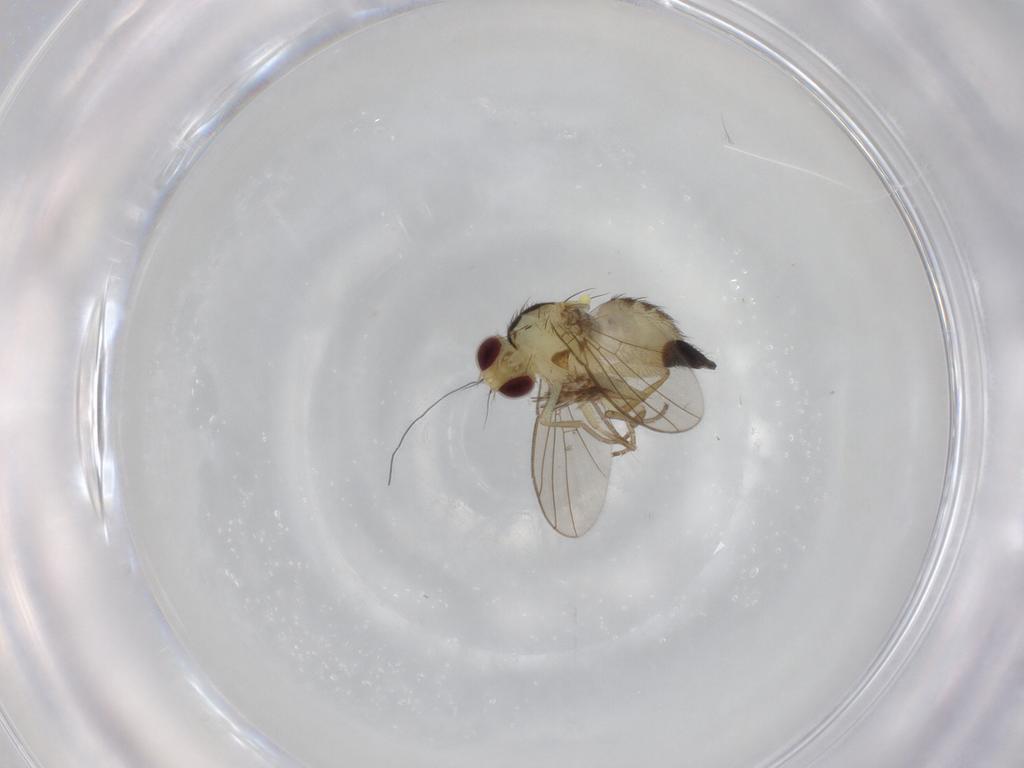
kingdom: Animalia
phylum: Arthropoda
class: Insecta
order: Diptera
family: Agromyzidae
